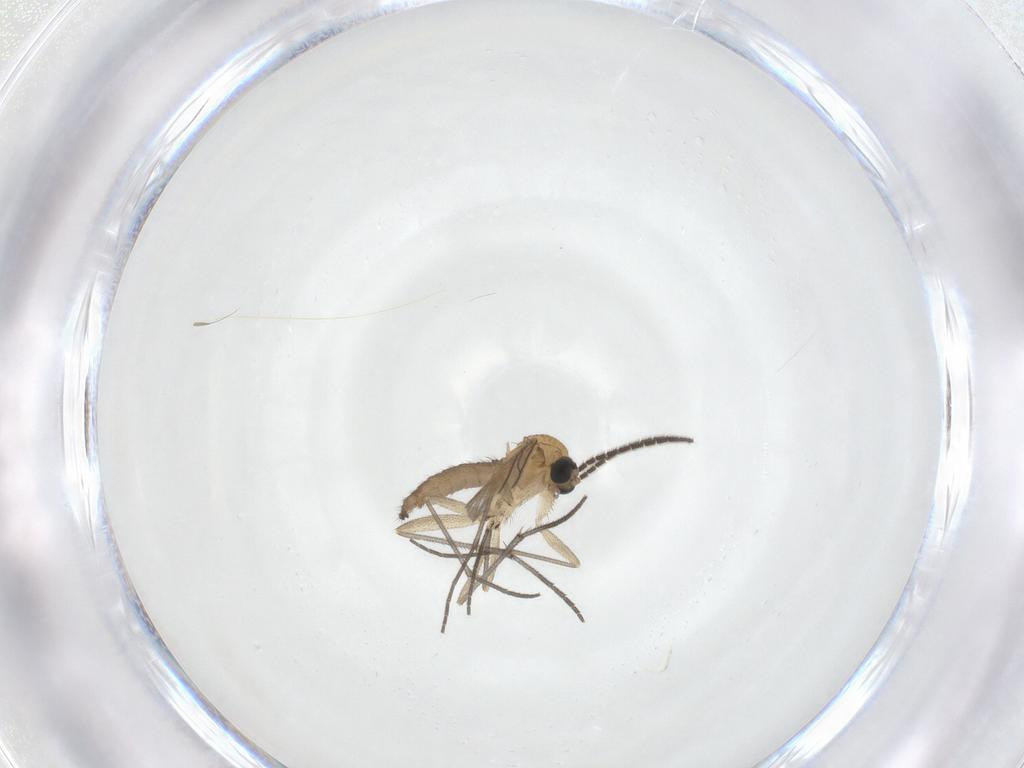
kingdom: Animalia
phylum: Arthropoda
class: Insecta
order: Diptera
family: Sciaridae
